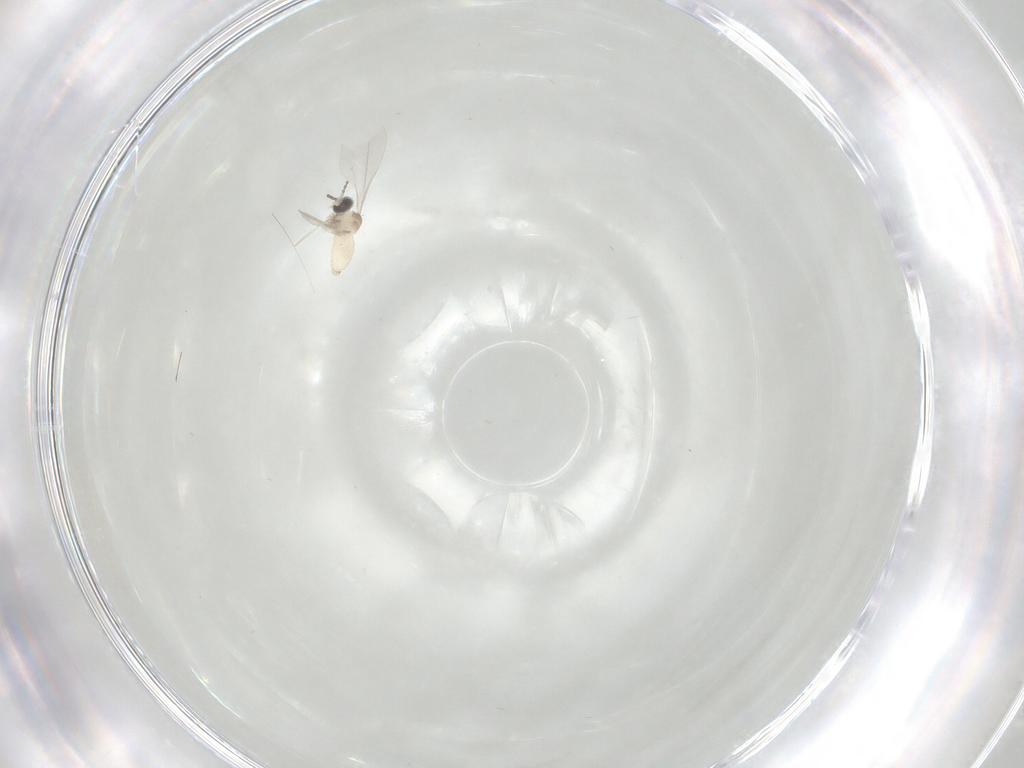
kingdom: Animalia
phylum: Arthropoda
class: Insecta
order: Diptera
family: Cecidomyiidae
